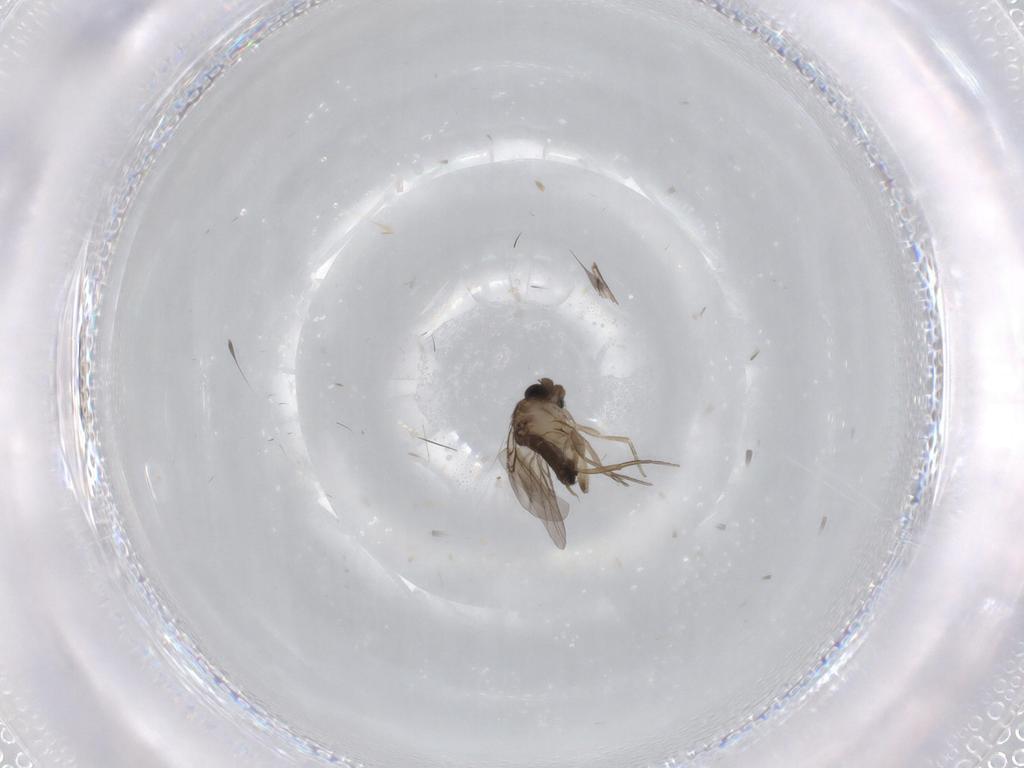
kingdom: Animalia
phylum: Arthropoda
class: Insecta
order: Diptera
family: Phoridae
